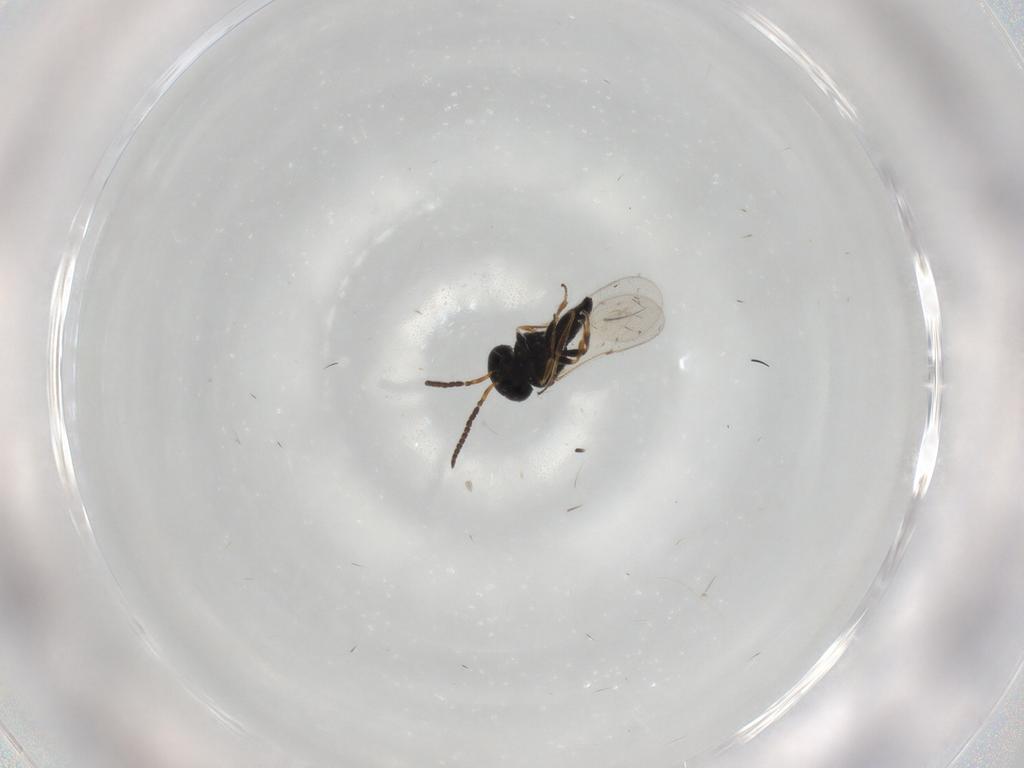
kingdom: Animalia
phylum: Arthropoda
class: Insecta
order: Coleoptera
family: Curculionidae
